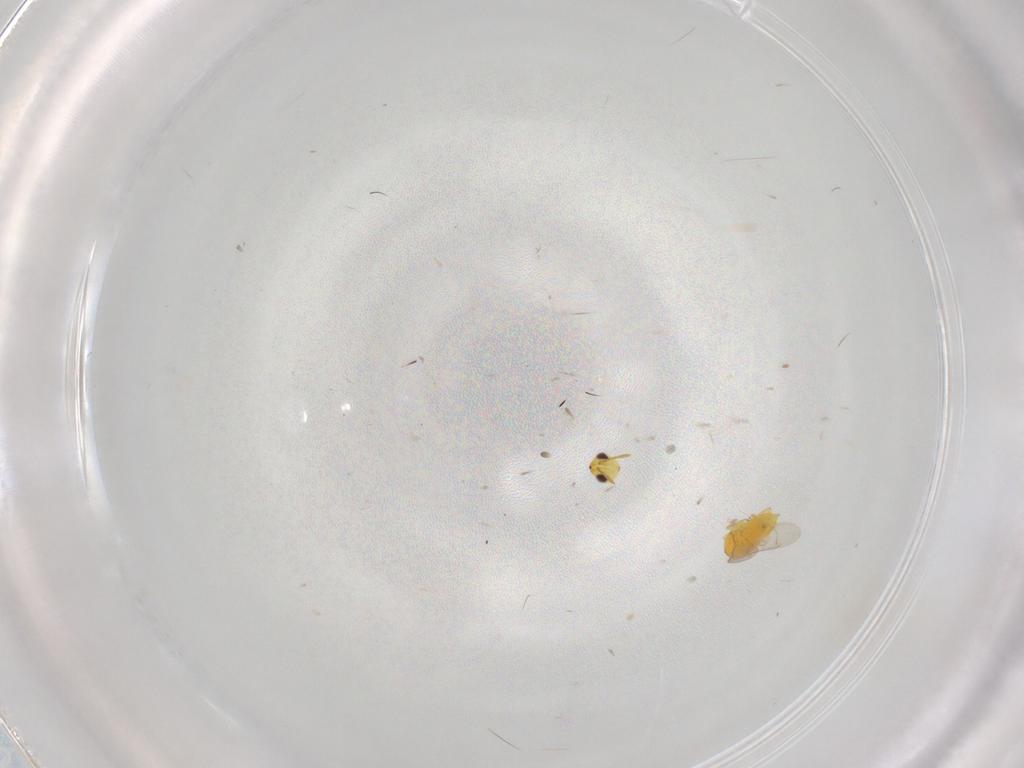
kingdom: Animalia
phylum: Arthropoda
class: Insecta
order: Hymenoptera
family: Aphelinidae
